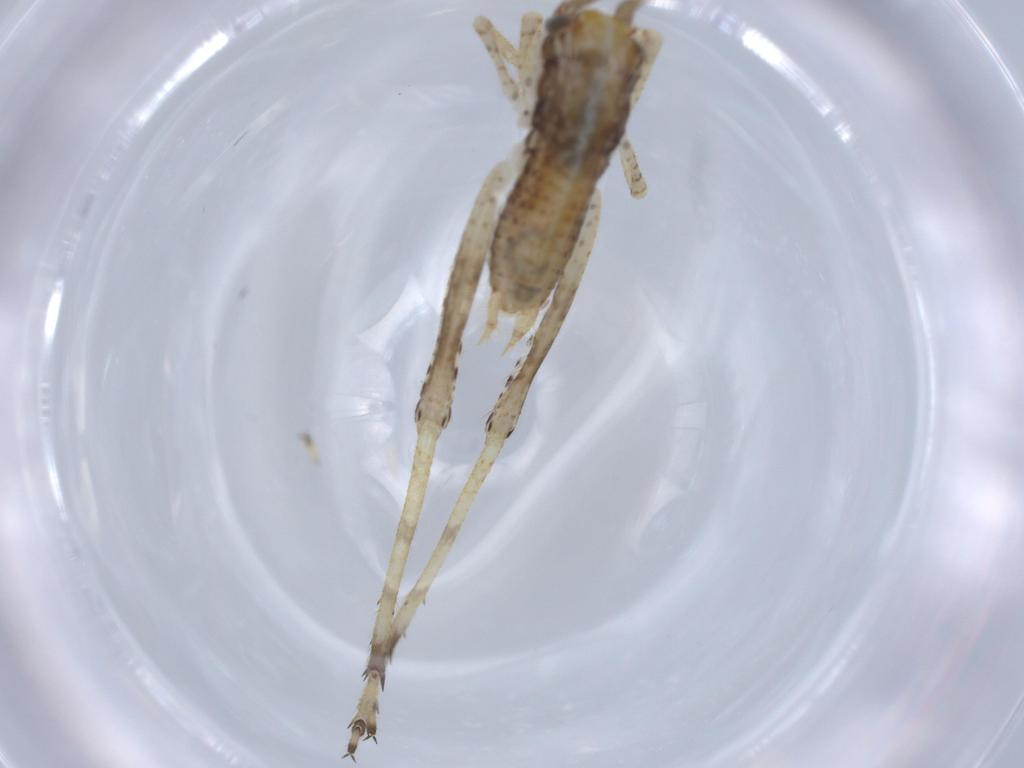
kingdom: Animalia
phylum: Arthropoda
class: Insecta
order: Orthoptera
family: Gryllidae
